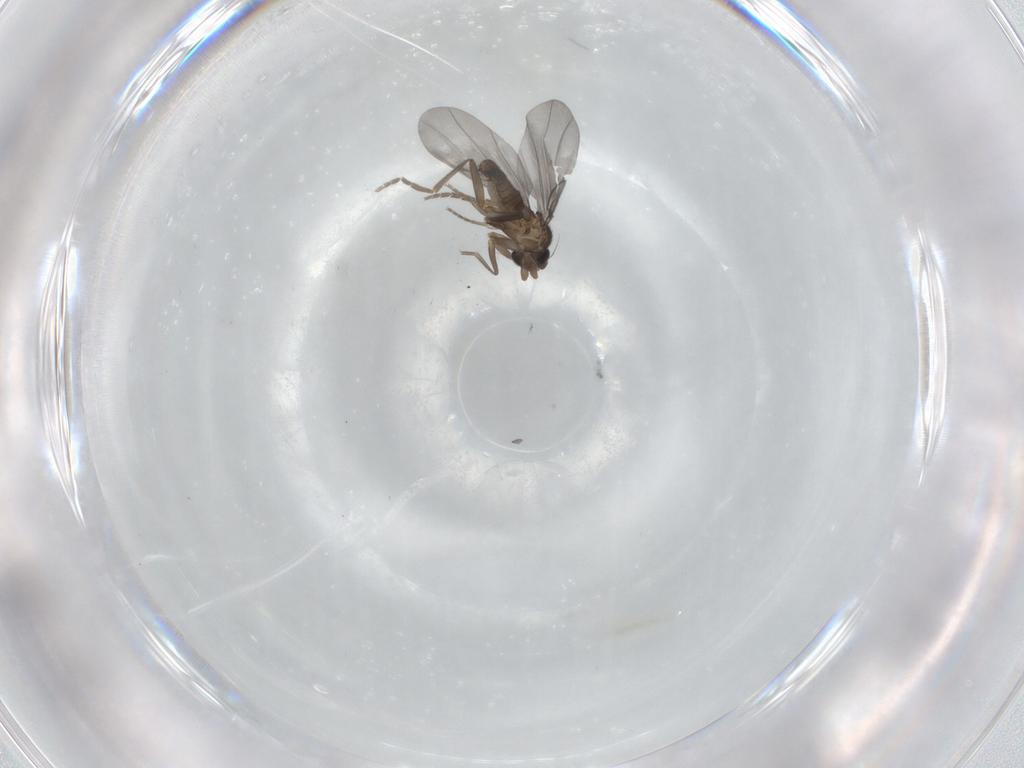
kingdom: Animalia
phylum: Arthropoda
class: Insecta
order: Diptera
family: Phoridae
